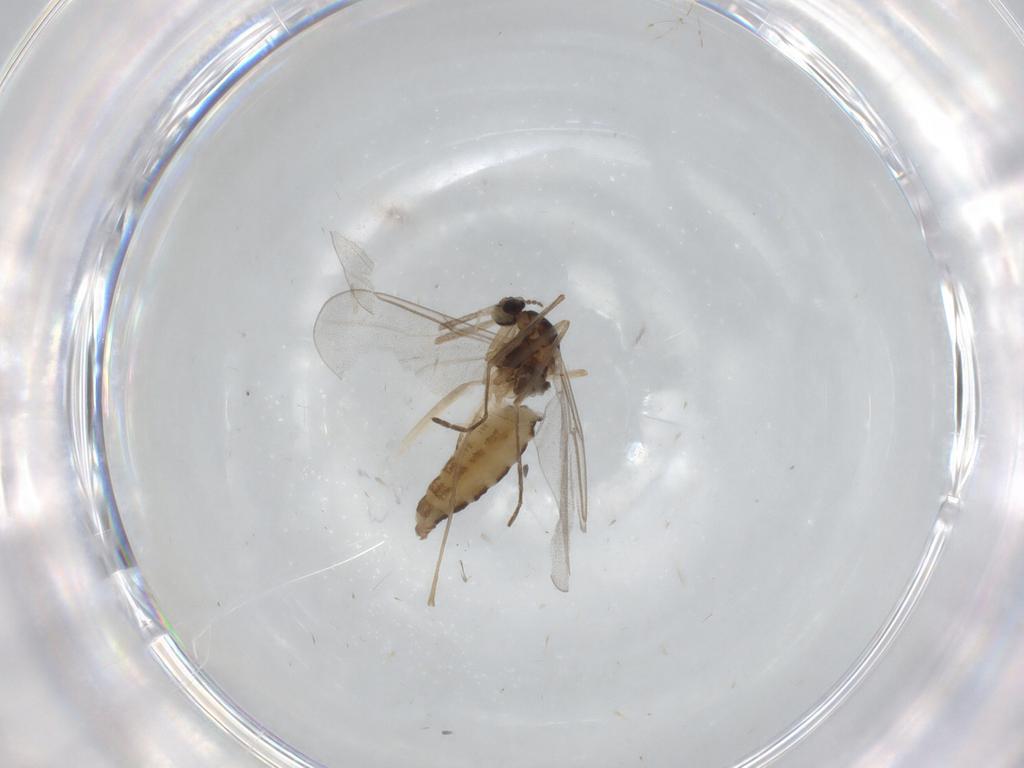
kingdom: Animalia
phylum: Arthropoda
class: Insecta
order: Diptera
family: Cecidomyiidae
